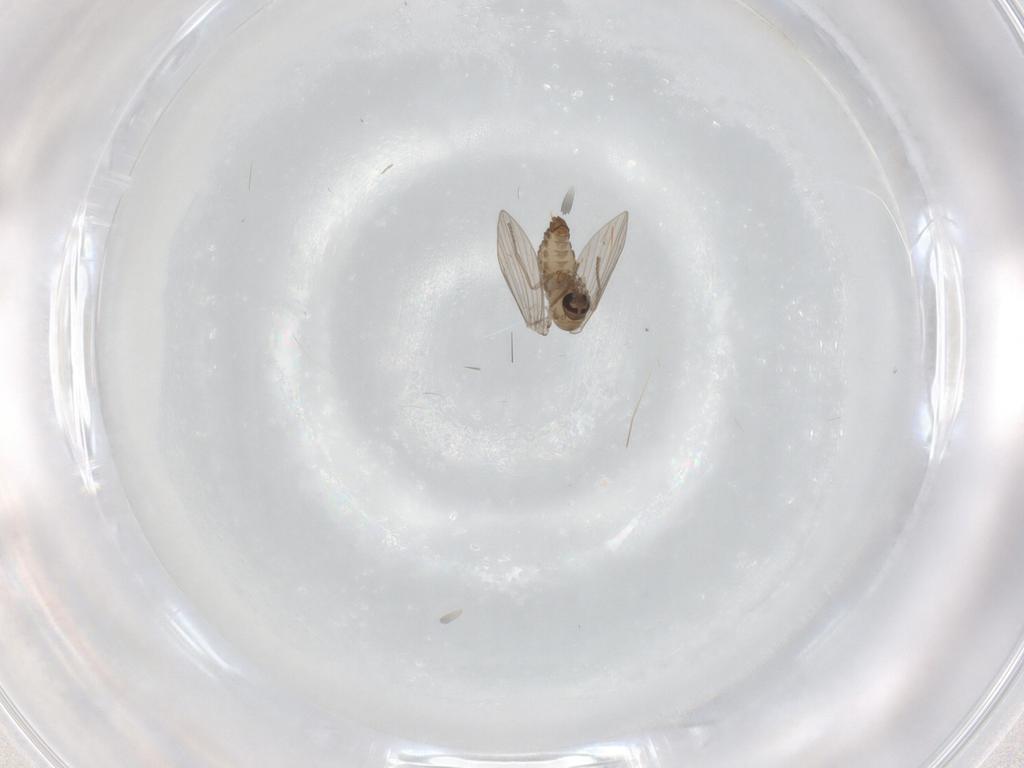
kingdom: Animalia
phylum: Arthropoda
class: Insecta
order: Diptera
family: Psychodidae
